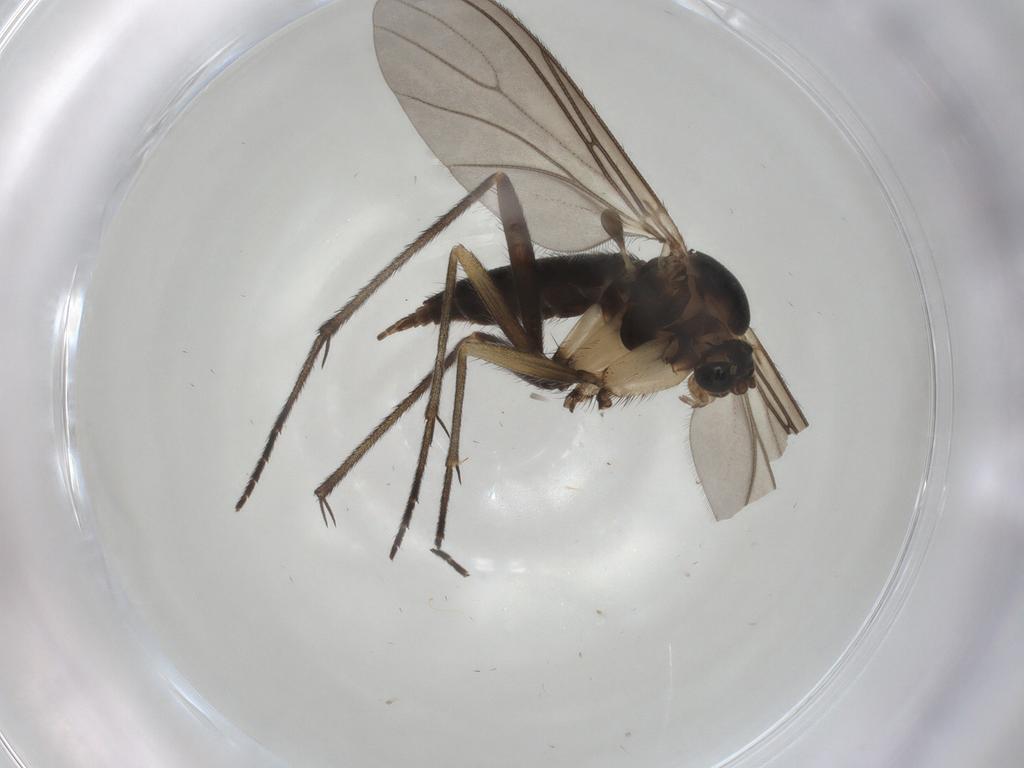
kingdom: Animalia
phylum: Arthropoda
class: Insecta
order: Diptera
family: Sciaridae
